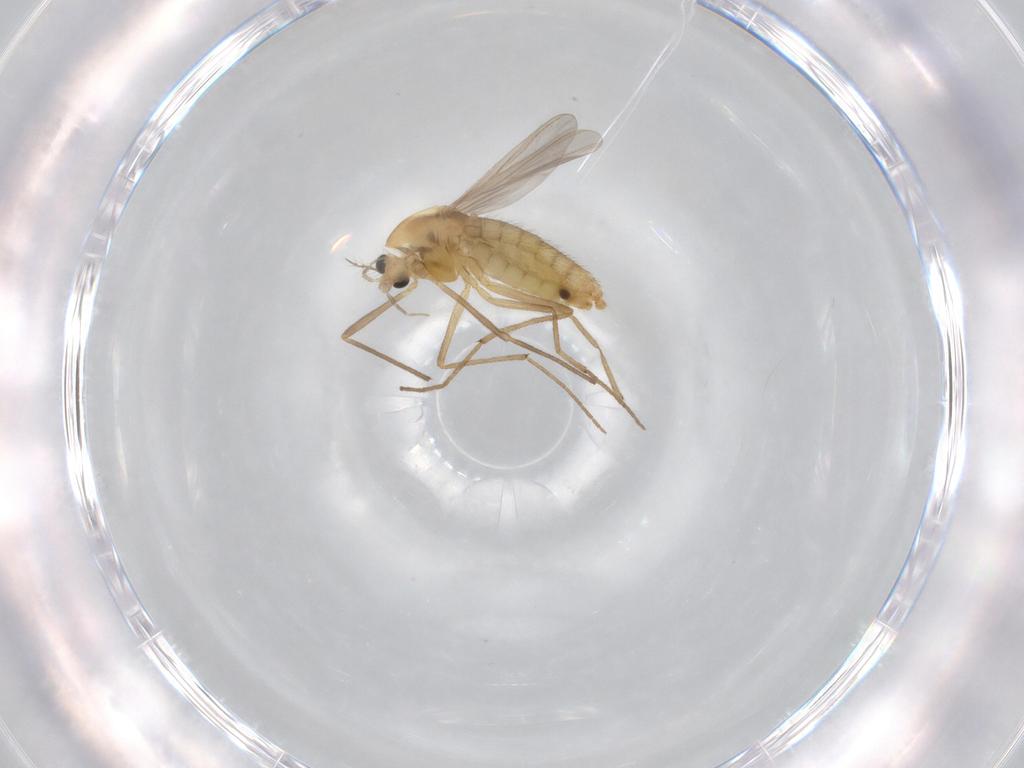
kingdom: Animalia
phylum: Arthropoda
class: Insecta
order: Diptera
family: Chironomidae
